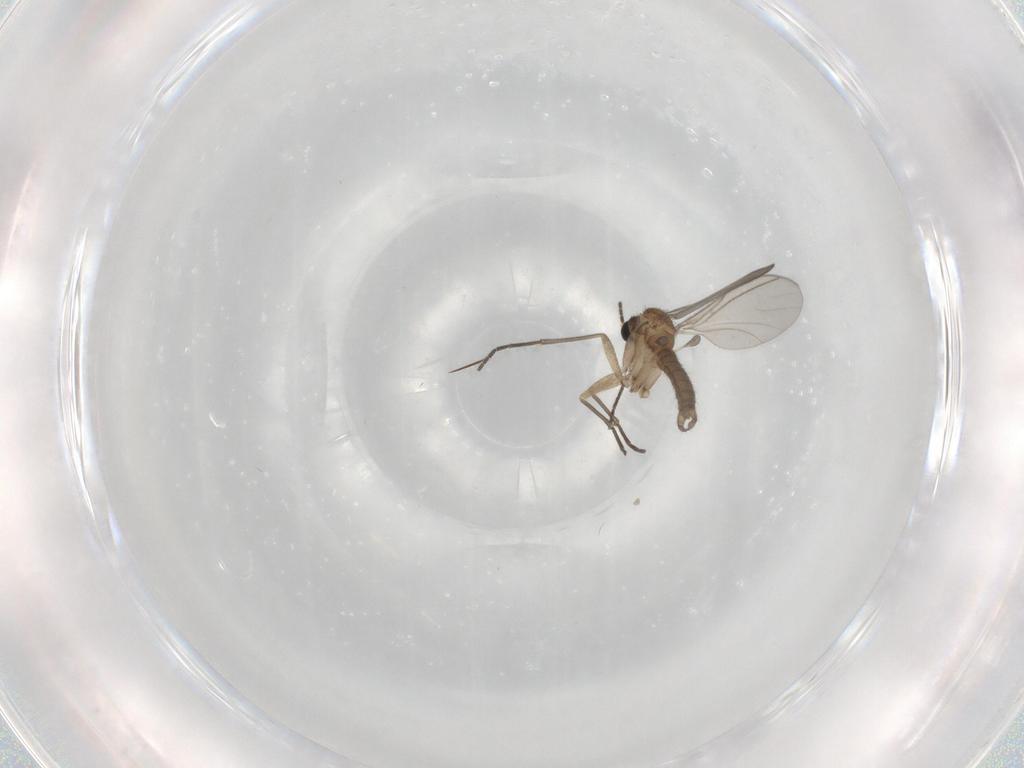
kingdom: Animalia
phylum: Arthropoda
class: Insecta
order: Diptera
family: Sciaridae
